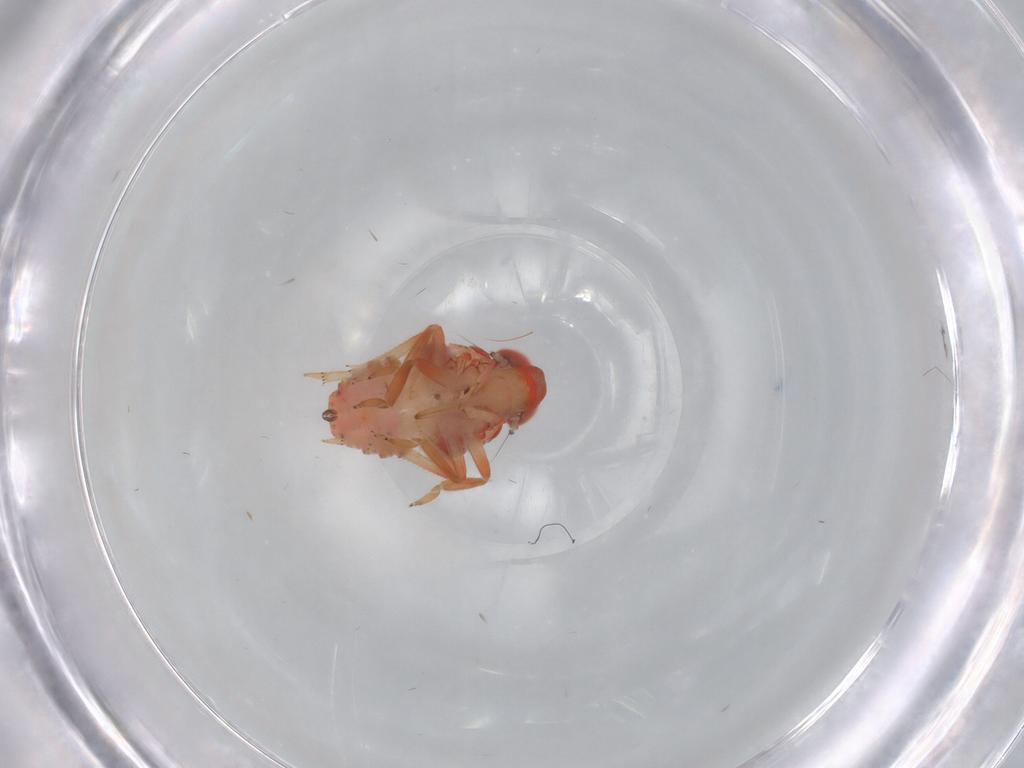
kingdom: Animalia
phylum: Arthropoda
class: Insecta
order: Hemiptera
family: Issidae
